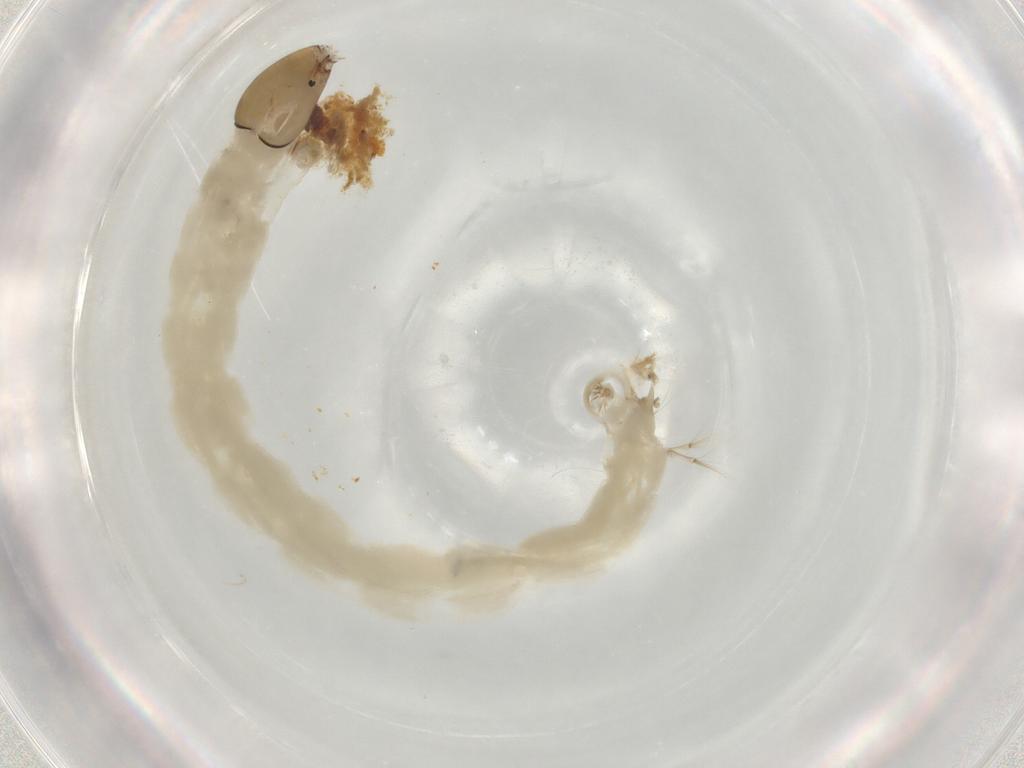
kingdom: Animalia
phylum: Arthropoda
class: Insecta
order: Diptera
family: Chironomidae
